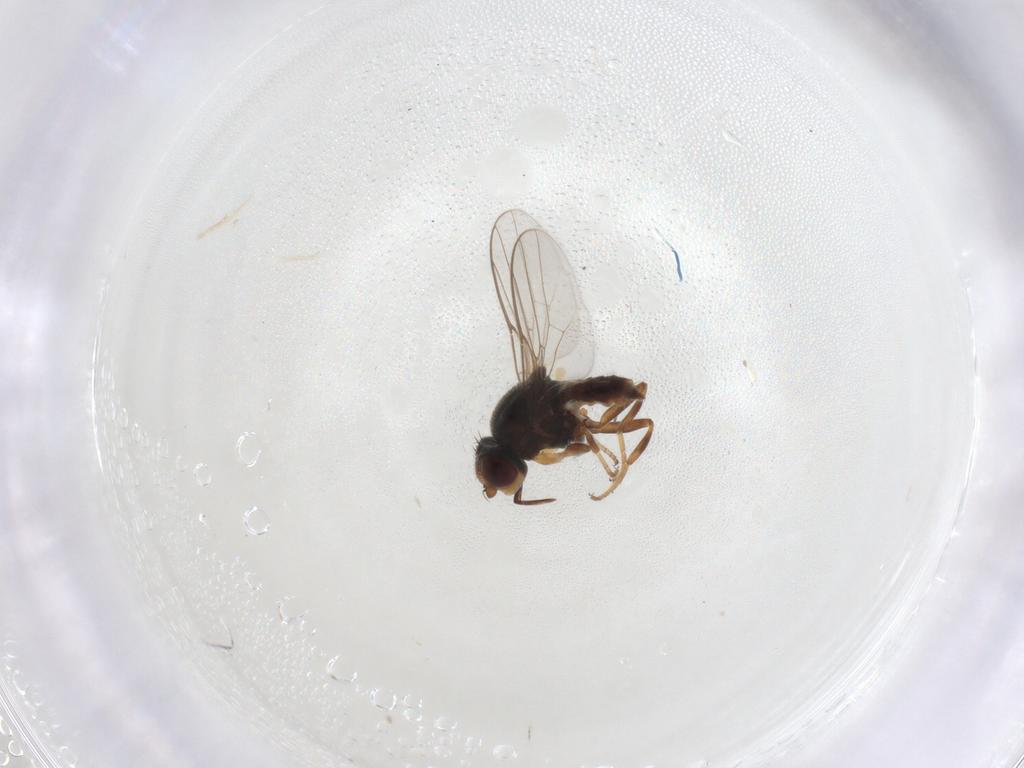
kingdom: Animalia
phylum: Arthropoda
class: Insecta
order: Diptera
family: Chloropidae
